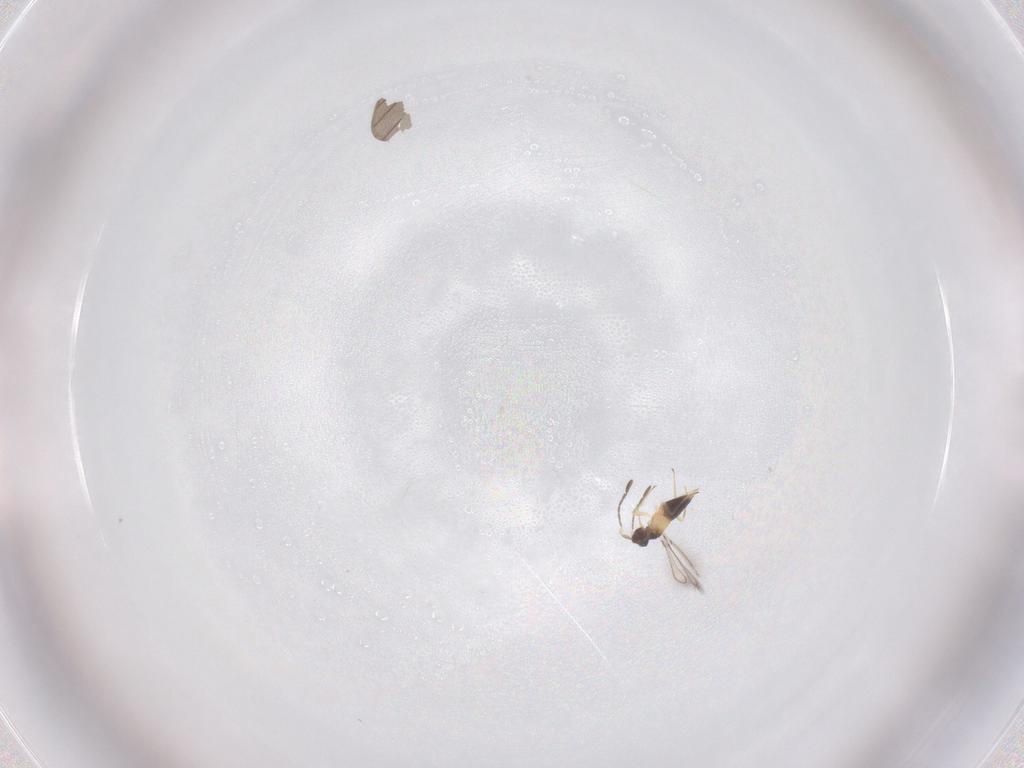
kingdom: Animalia
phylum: Arthropoda
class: Insecta
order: Hymenoptera
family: Mymaridae
